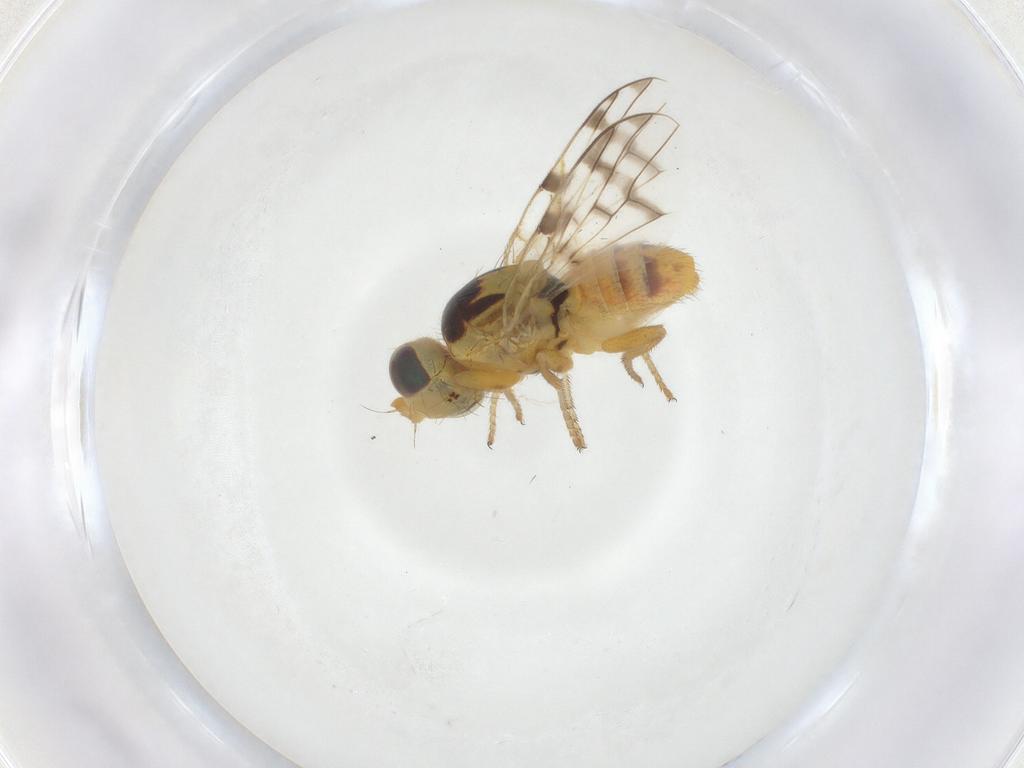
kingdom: Animalia
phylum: Arthropoda
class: Insecta
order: Diptera
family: Tephritidae
